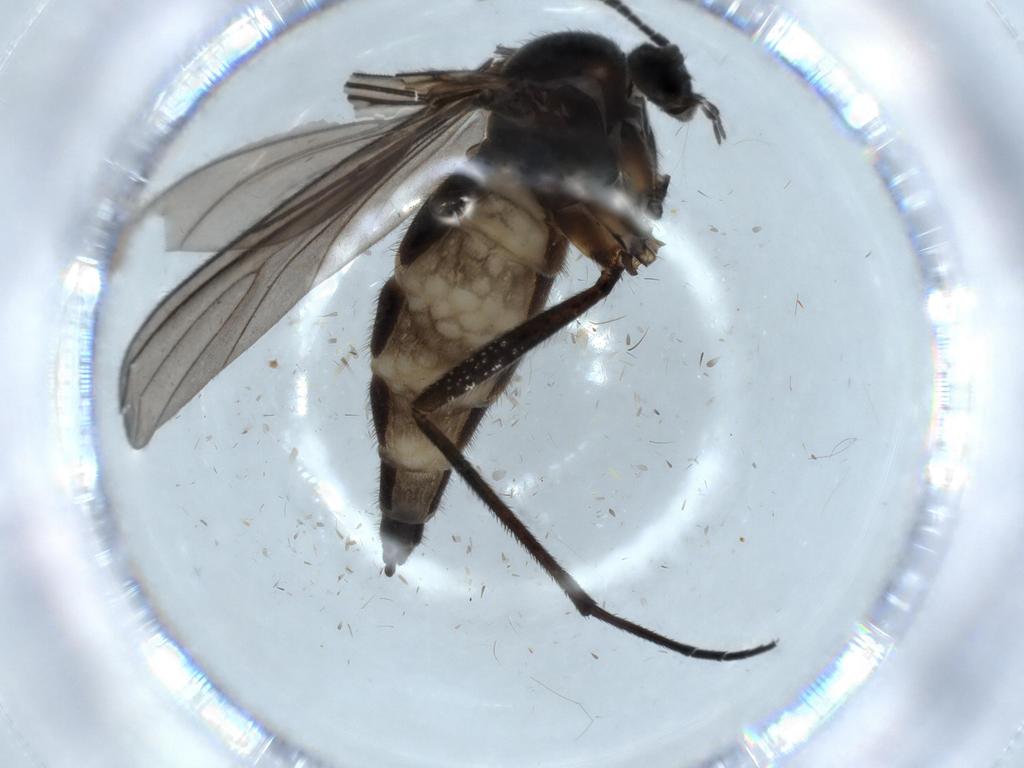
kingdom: Animalia
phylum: Arthropoda
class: Insecta
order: Diptera
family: Sciaridae
